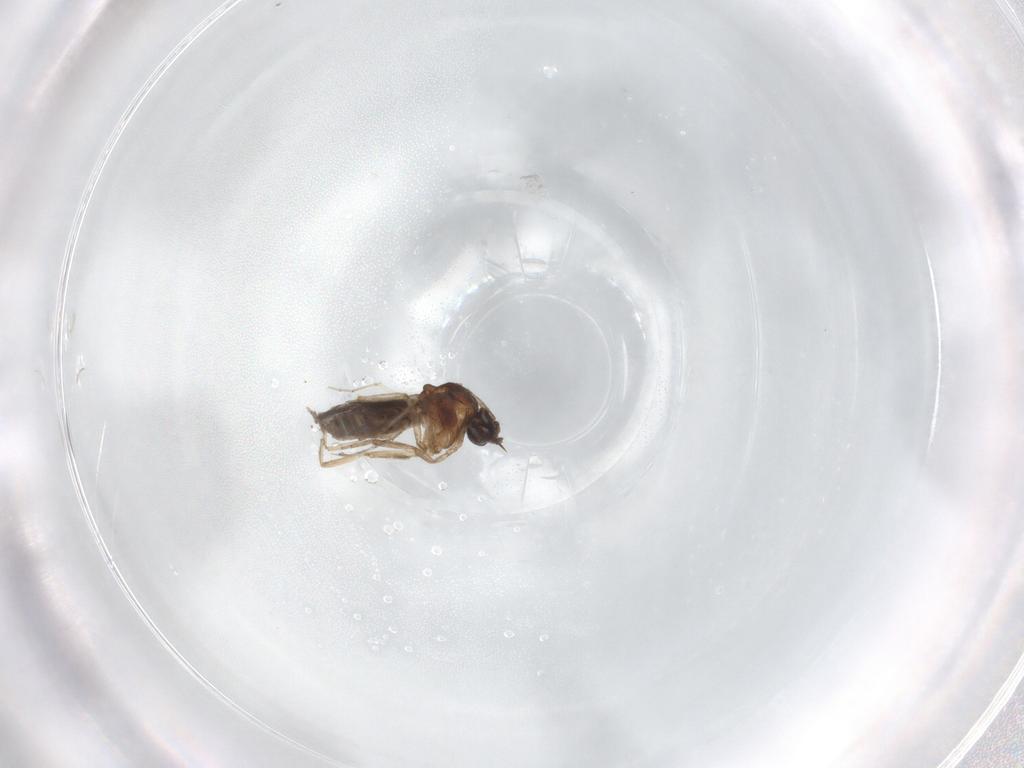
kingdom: Animalia
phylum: Arthropoda
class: Insecta
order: Diptera
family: Ceratopogonidae
